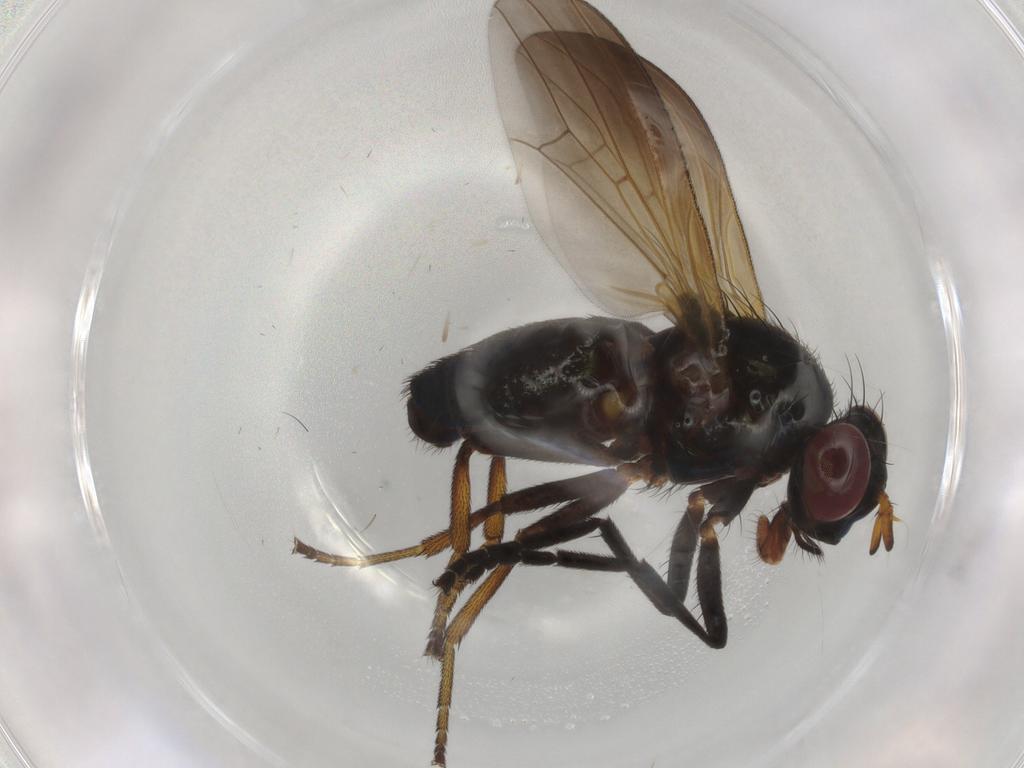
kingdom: Animalia
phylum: Arthropoda
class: Insecta
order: Diptera
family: Lauxaniidae
